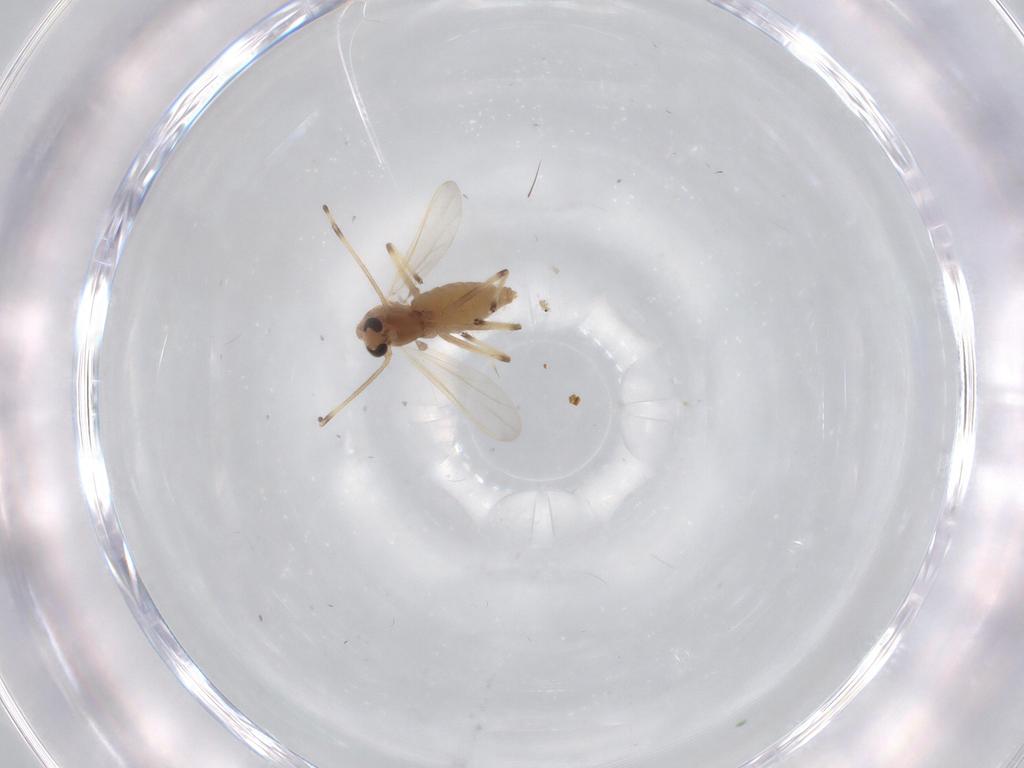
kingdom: Animalia
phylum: Arthropoda
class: Insecta
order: Diptera
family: Chironomidae
